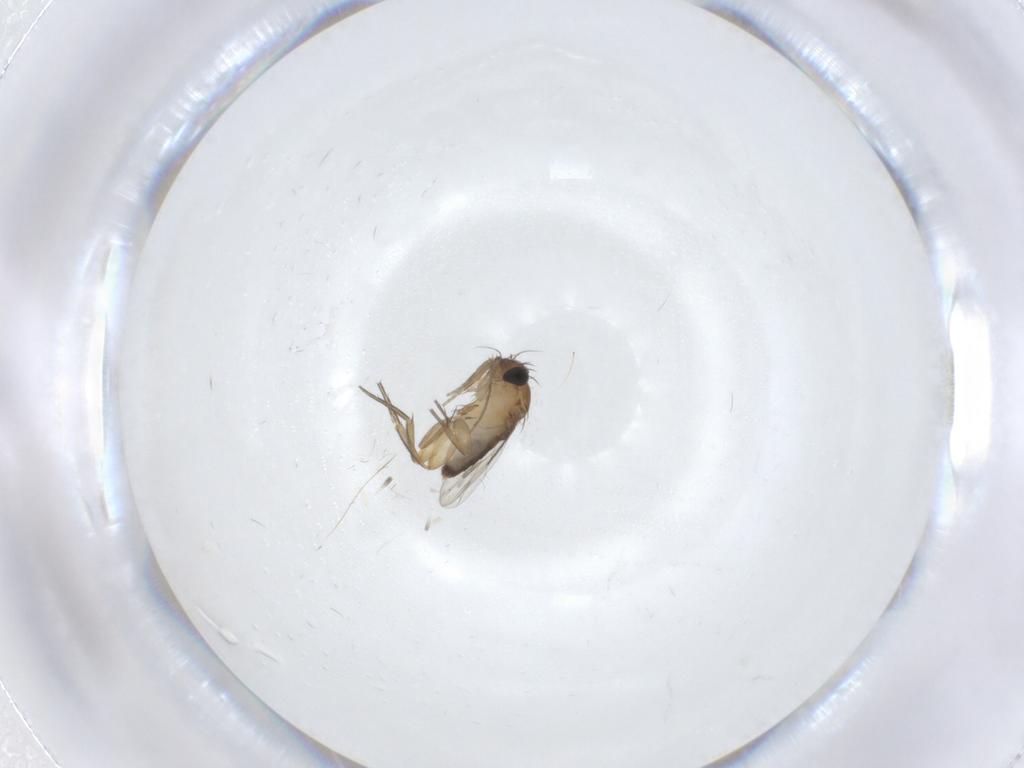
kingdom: Animalia
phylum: Arthropoda
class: Insecta
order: Diptera
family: Phoridae
